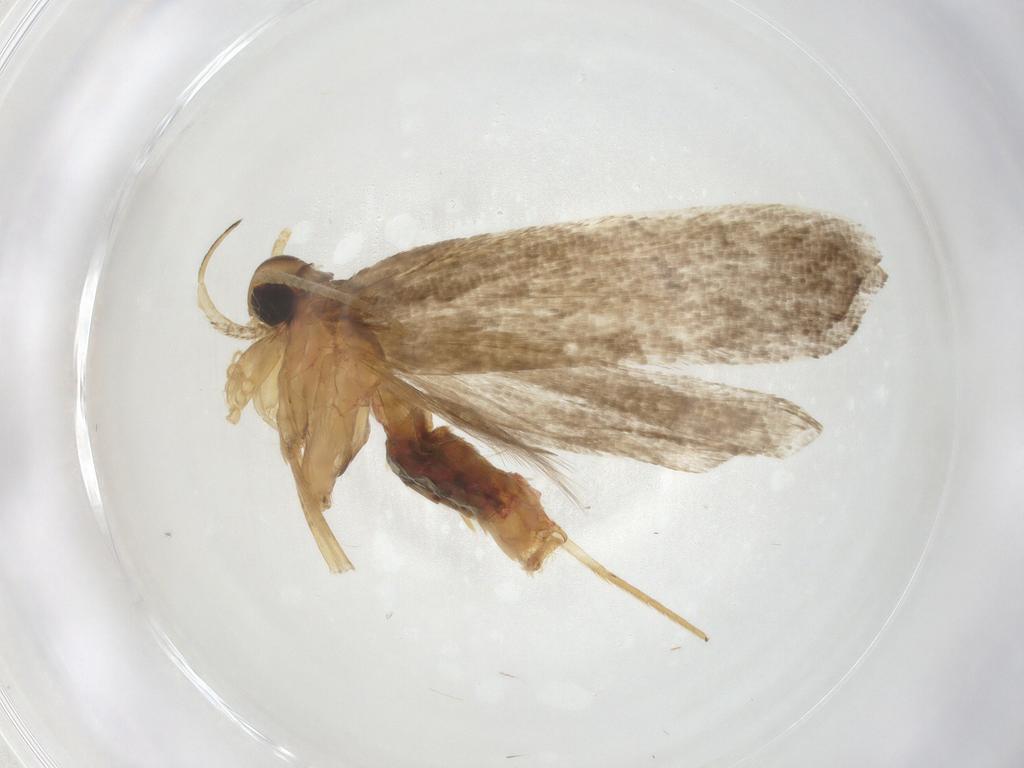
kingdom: Animalia
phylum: Arthropoda
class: Insecta
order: Lepidoptera
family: Lecithoceridae
